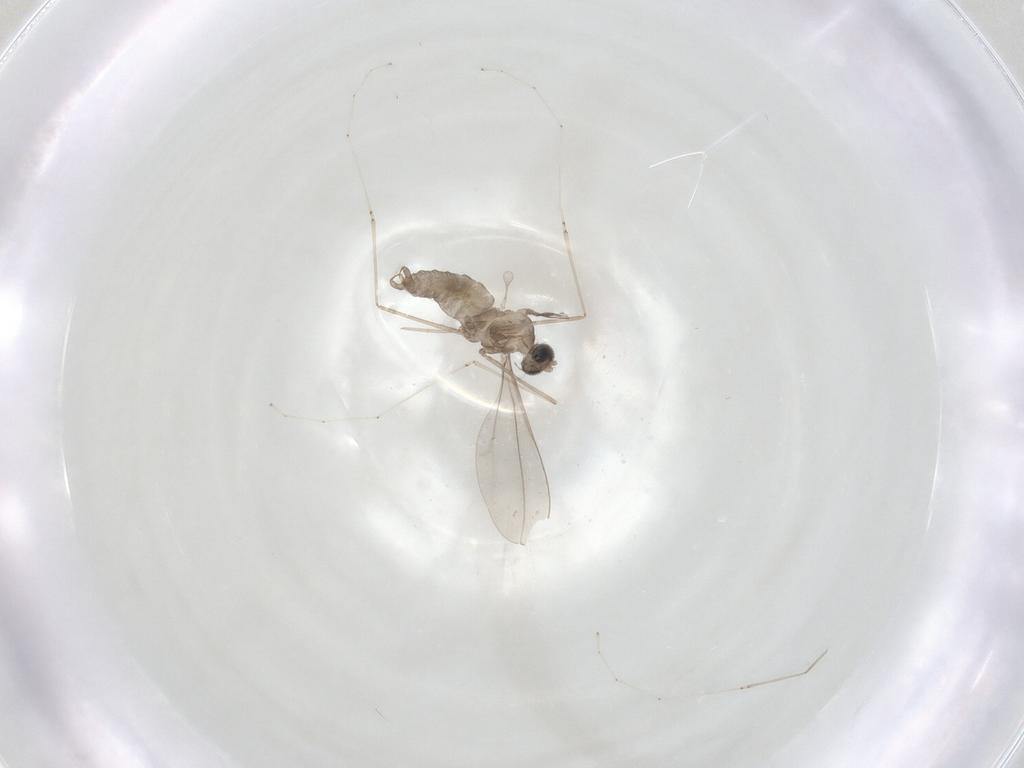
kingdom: Animalia
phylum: Arthropoda
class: Insecta
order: Diptera
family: Cecidomyiidae
